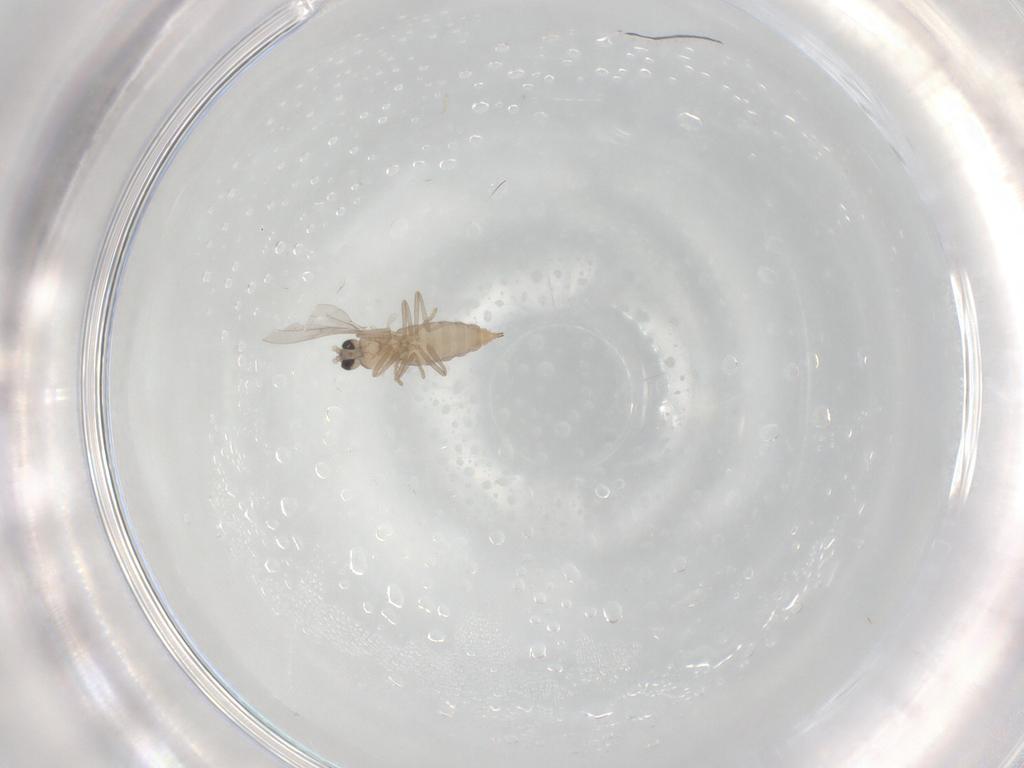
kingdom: Animalia
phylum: Arthropoda
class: Insecta
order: Diptera
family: Cecidomyiidae
